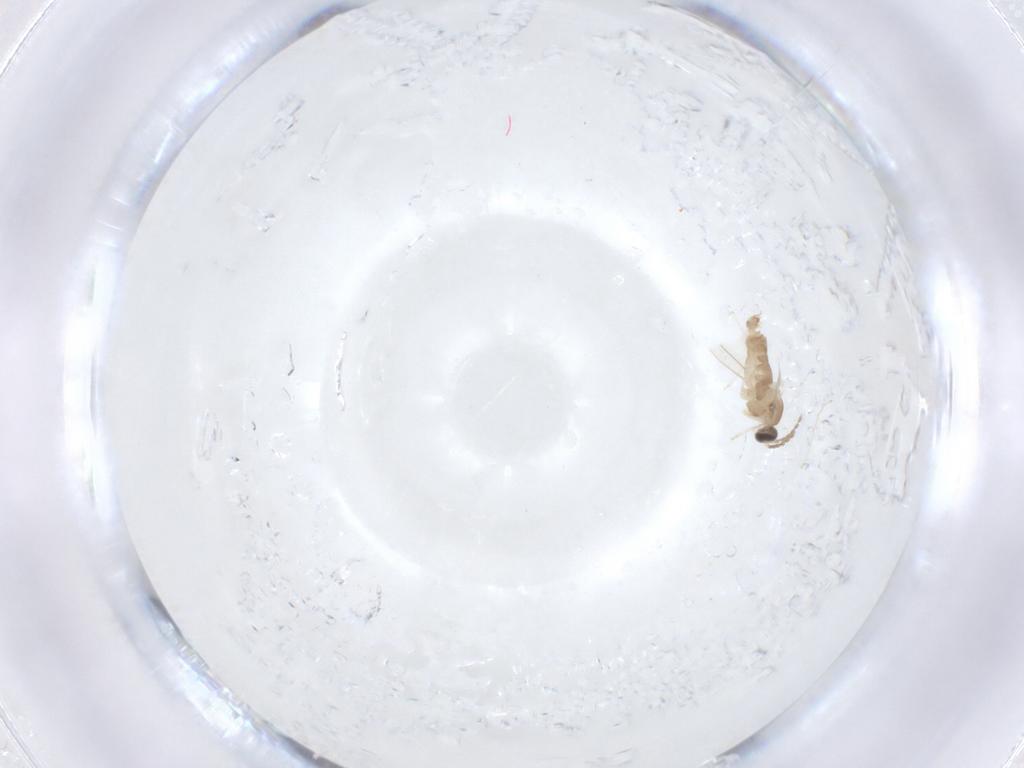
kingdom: Animalia
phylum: Arthropoda
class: Insecta
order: Diptera
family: Cecidomyiidae
